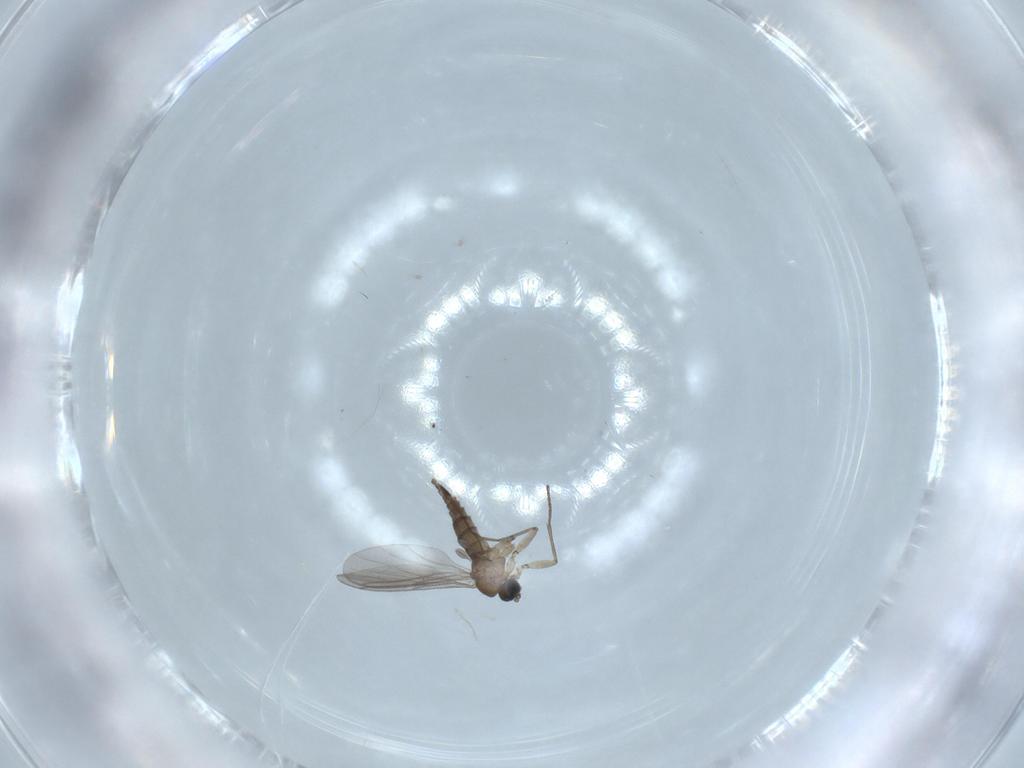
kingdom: Animalia
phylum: Arthropoda
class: Insecta
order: Diptera
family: Sciaridae
